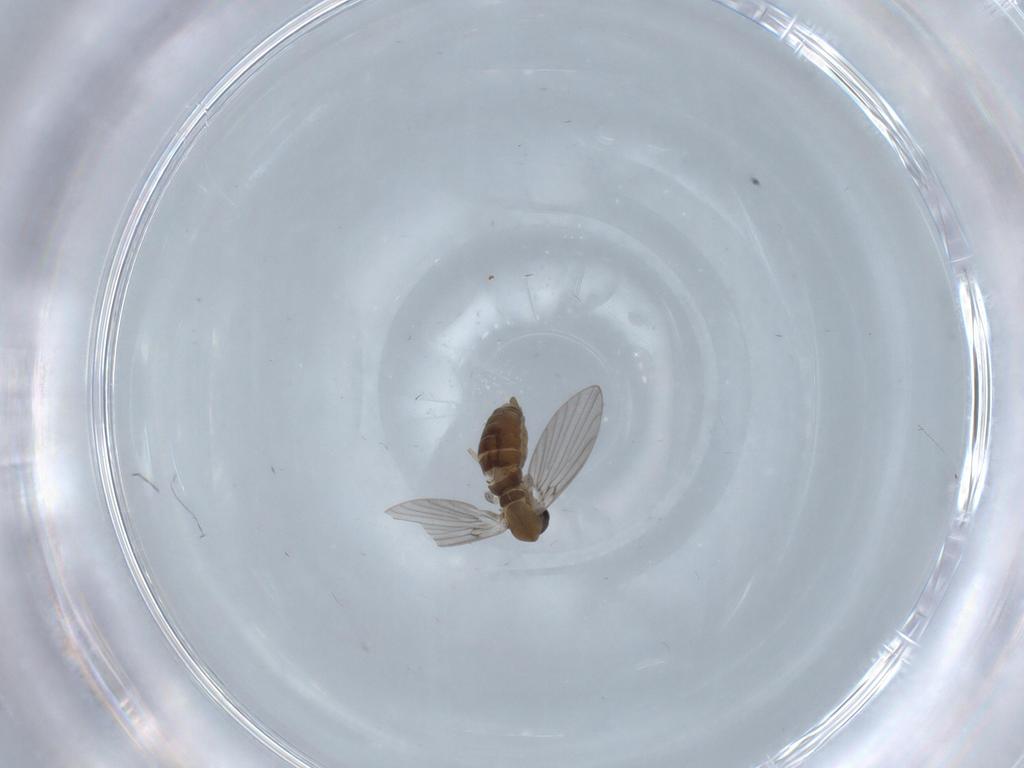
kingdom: Animalia
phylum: Arthropoda
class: Insecta
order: Diptera
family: Psychodidae
